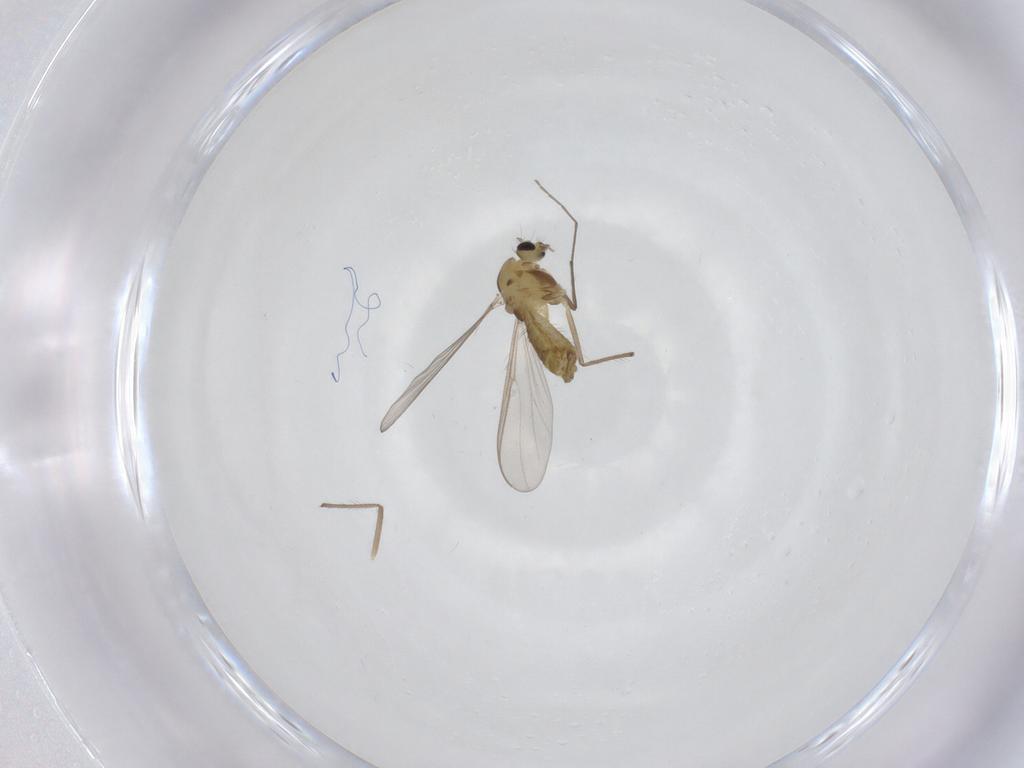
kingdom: Animalia
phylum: Arthropoda
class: Insecta
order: Diptera
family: Chironomidae
